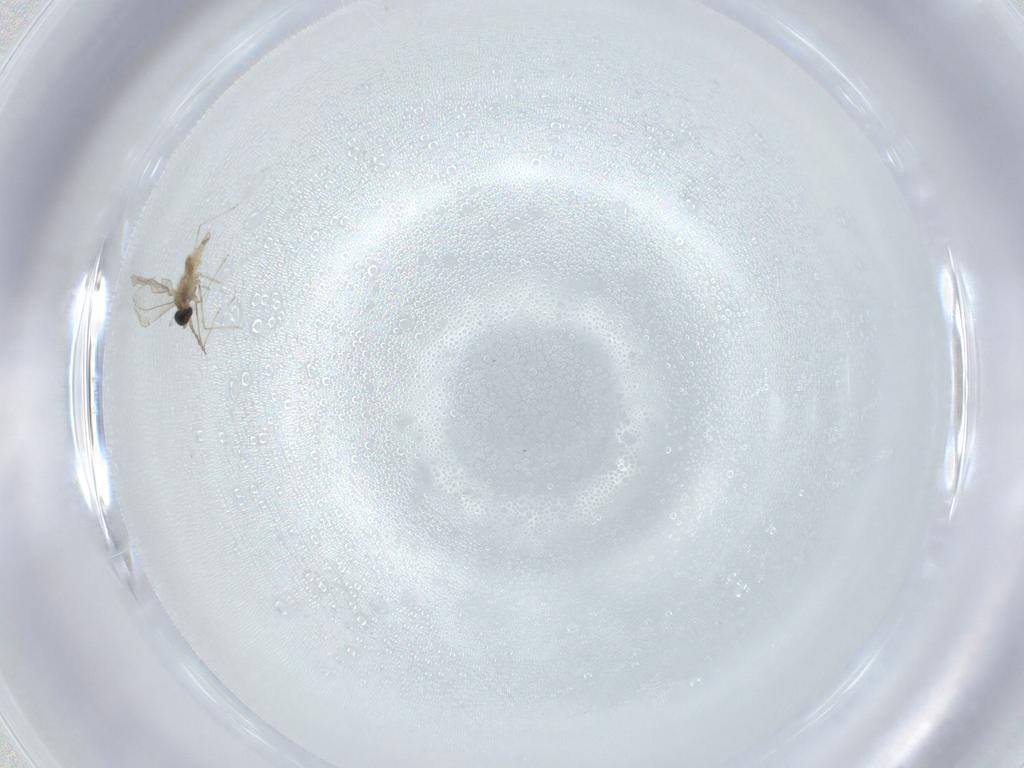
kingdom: Animalia
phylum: Arthropoda
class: Insecta
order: Diptera
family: Cecidomyiidae
